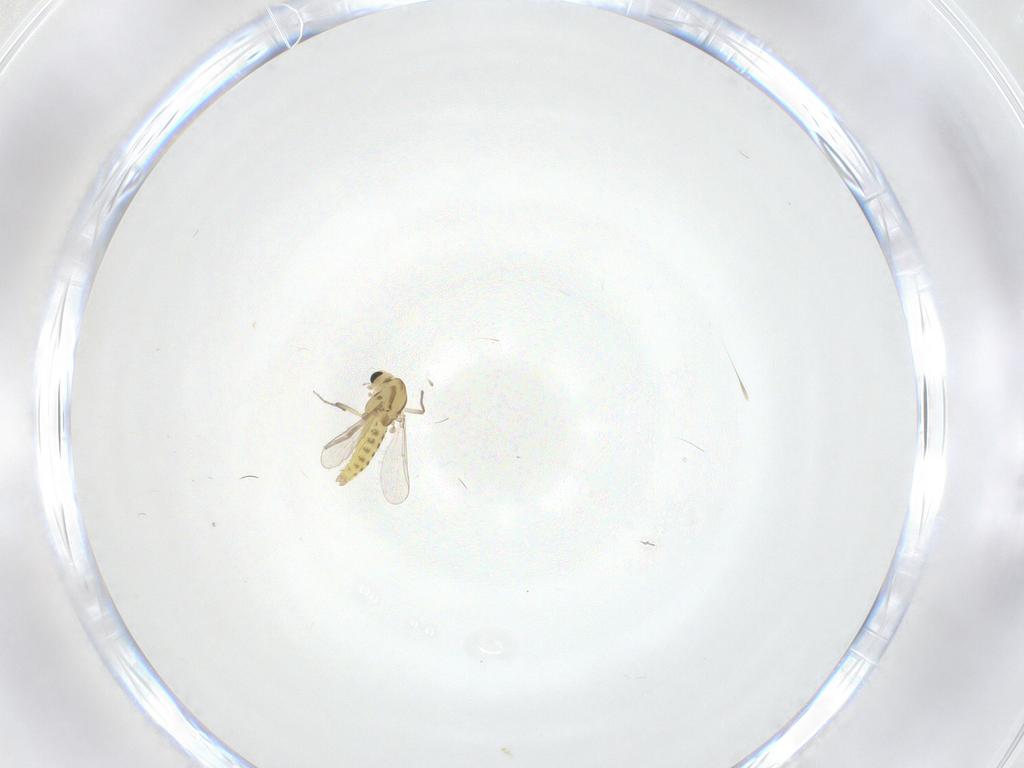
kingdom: Animalia
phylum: Arthropoda
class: Insecta
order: Diptera
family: Chironomidae
